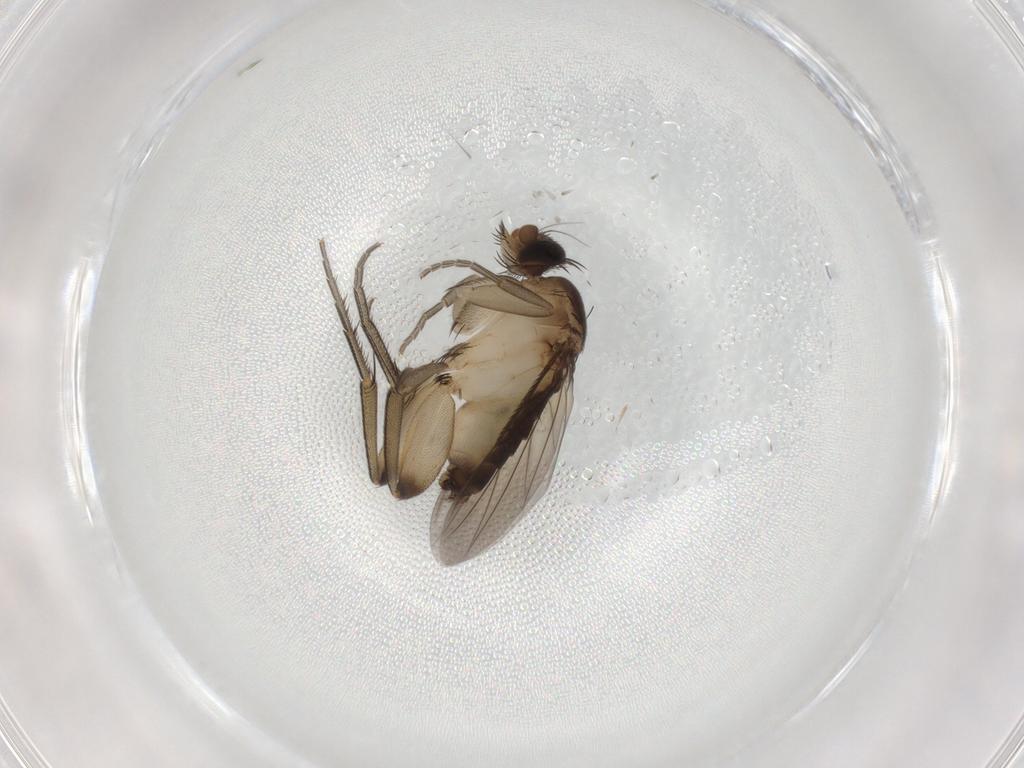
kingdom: Animalia
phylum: Arthropoda
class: Insecta
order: Diptera
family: Phoridae
